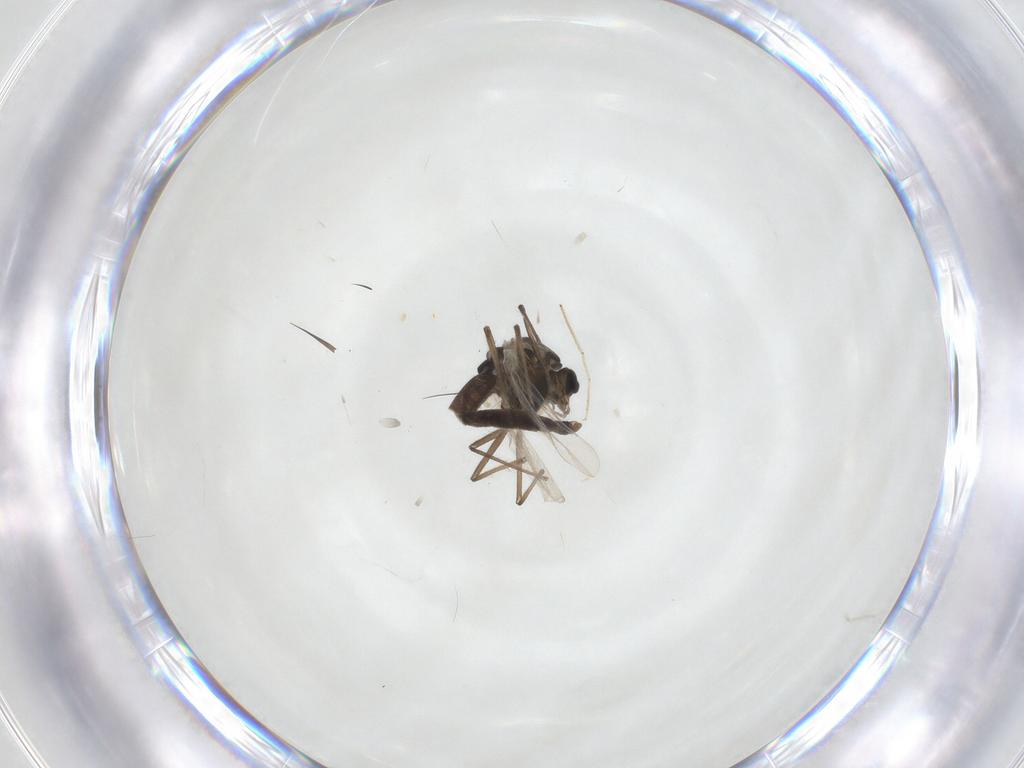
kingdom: Animalia
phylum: Arthropoda
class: Insecta
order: Diptera
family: Chironomidae
